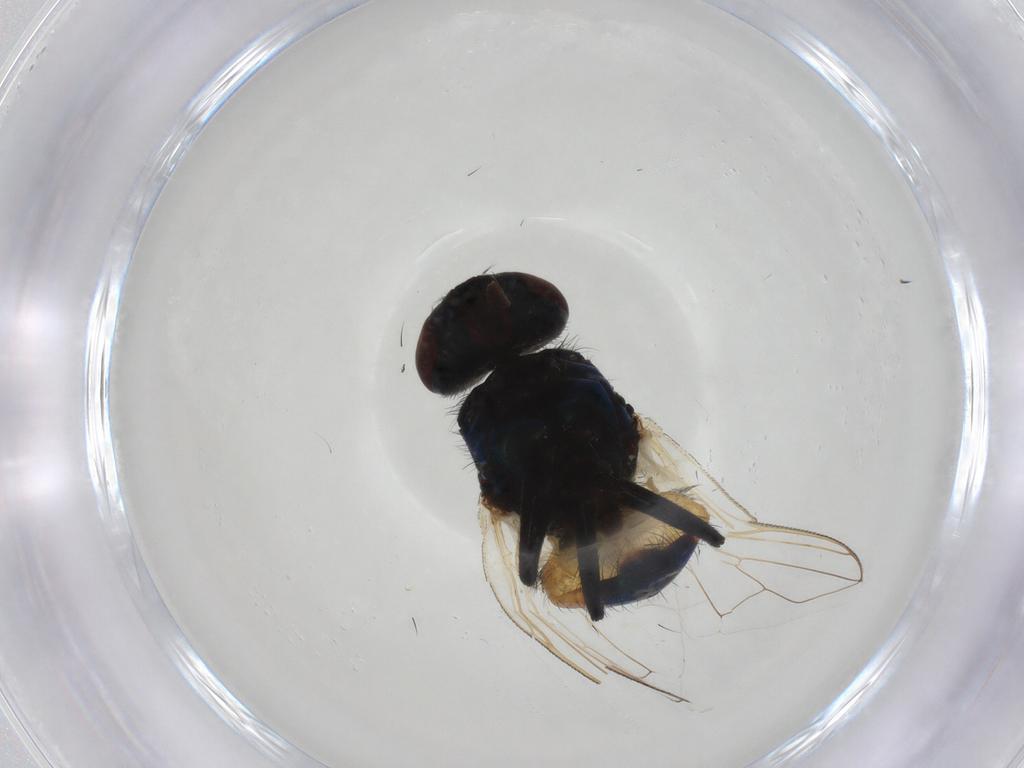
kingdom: Animalia
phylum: Arthropoda
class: Insecta
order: Diptera
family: Muscidae
